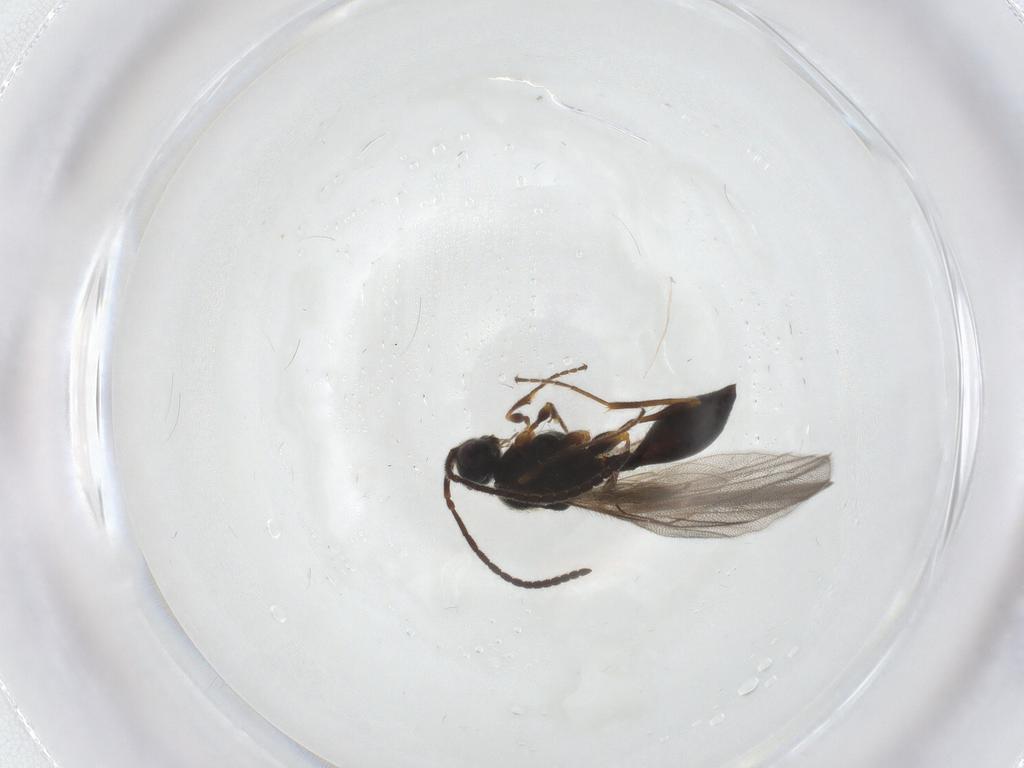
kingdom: Animalia
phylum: Arthropoda
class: Insecta
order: Hymenoptera
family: Diapriidae
